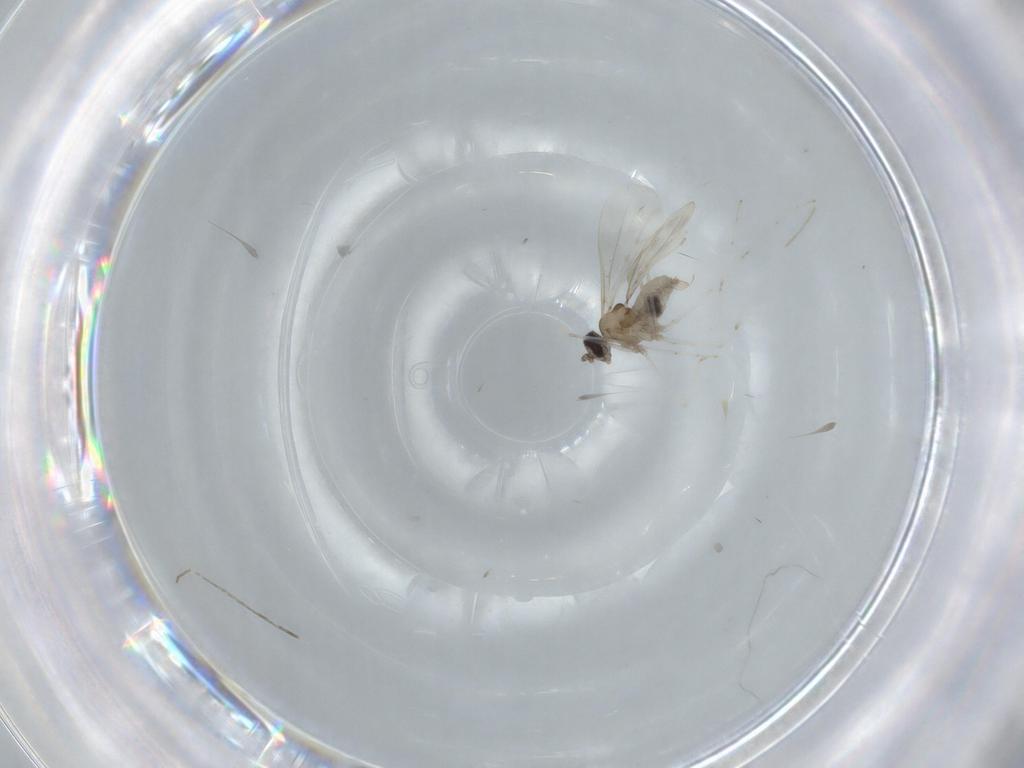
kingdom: Animalia
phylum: Arthropoda
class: Insecta
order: Diptera
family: Cecidomyiidae
